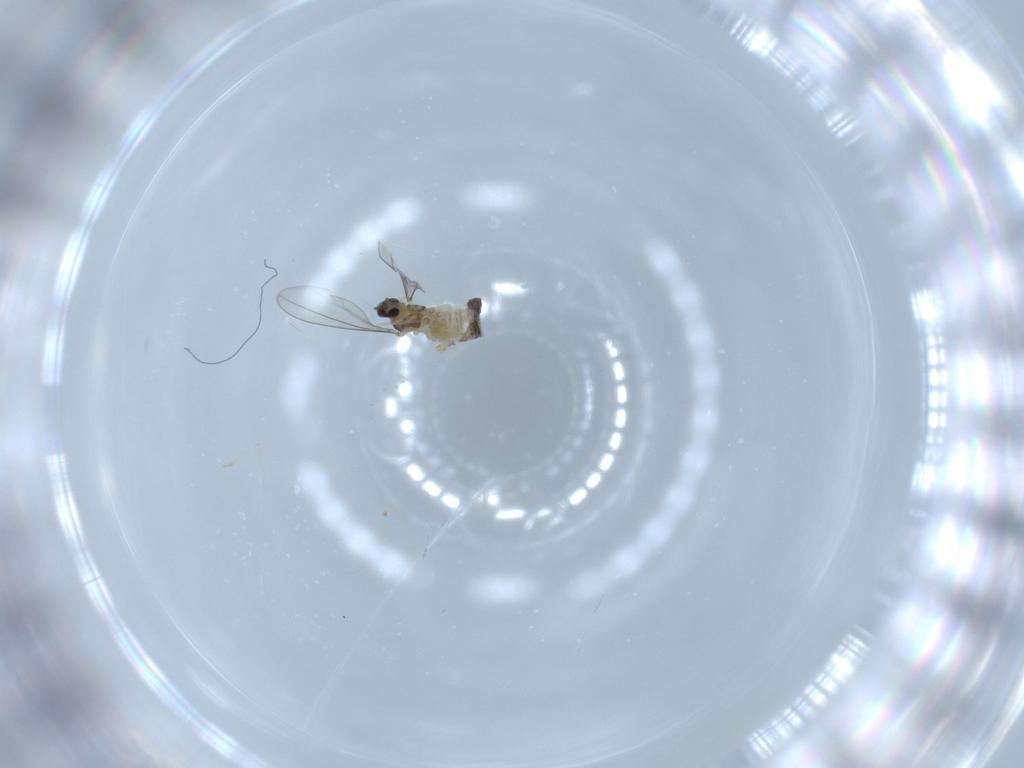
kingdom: Animalia
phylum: Arthropoda
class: Insecta
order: Diptera
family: Cecidomyiidae
